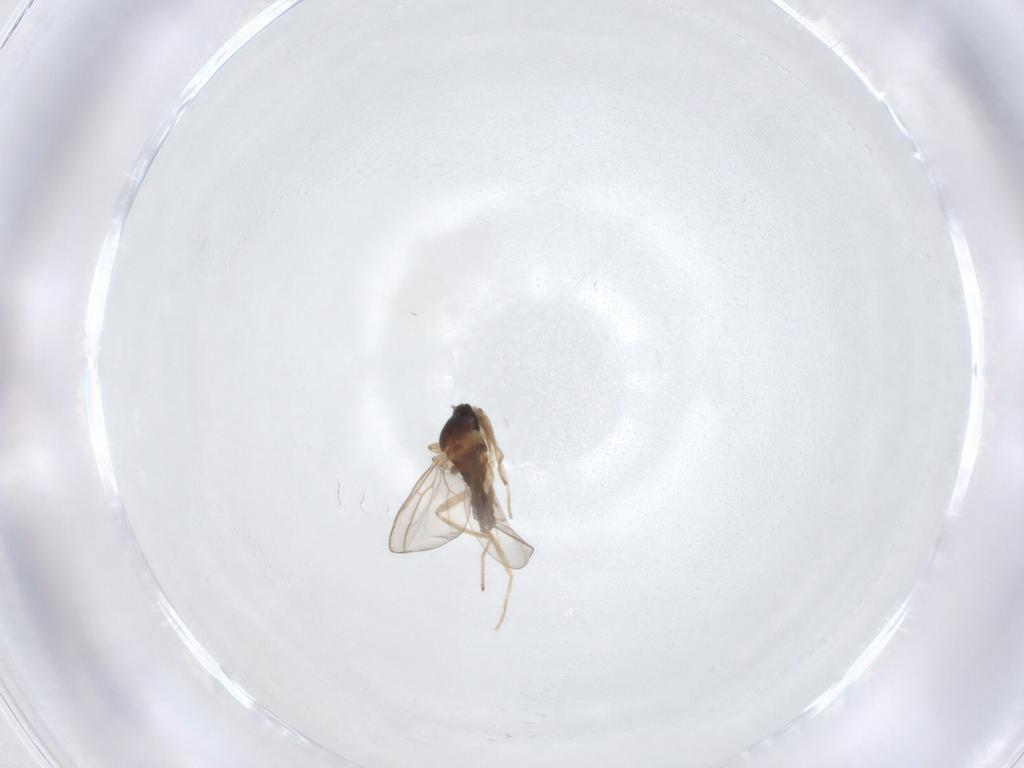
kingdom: Animalia
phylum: Arthropoda
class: Insecta
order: Diptera
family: Cecidomyiidae
